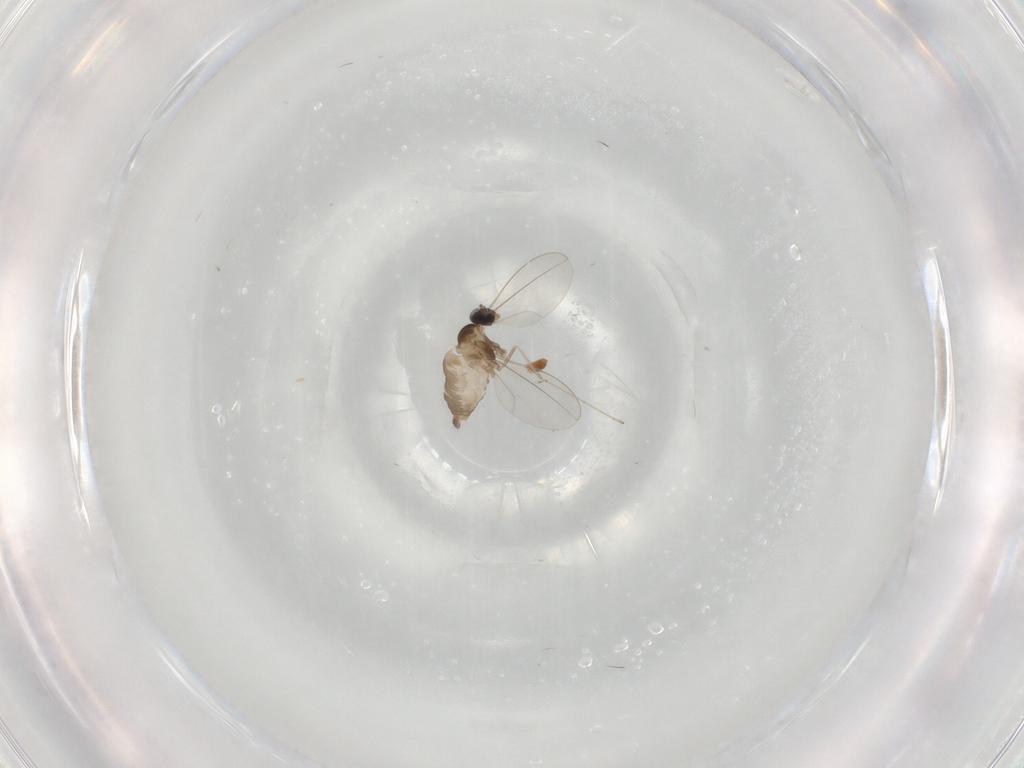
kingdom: Animalia
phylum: Arthropoda
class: Insecta
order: Diptera
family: Cecidomyiidae
